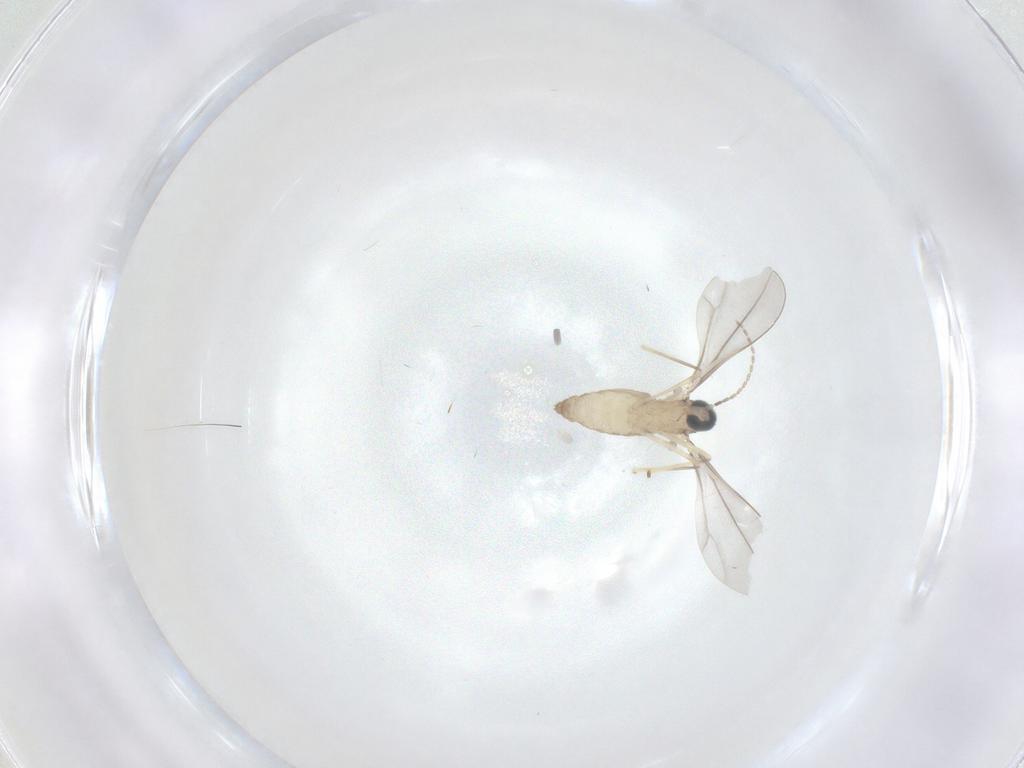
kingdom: Animalia
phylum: Arthropoda
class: Insecta
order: Diptera
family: Cecidomyiidae
